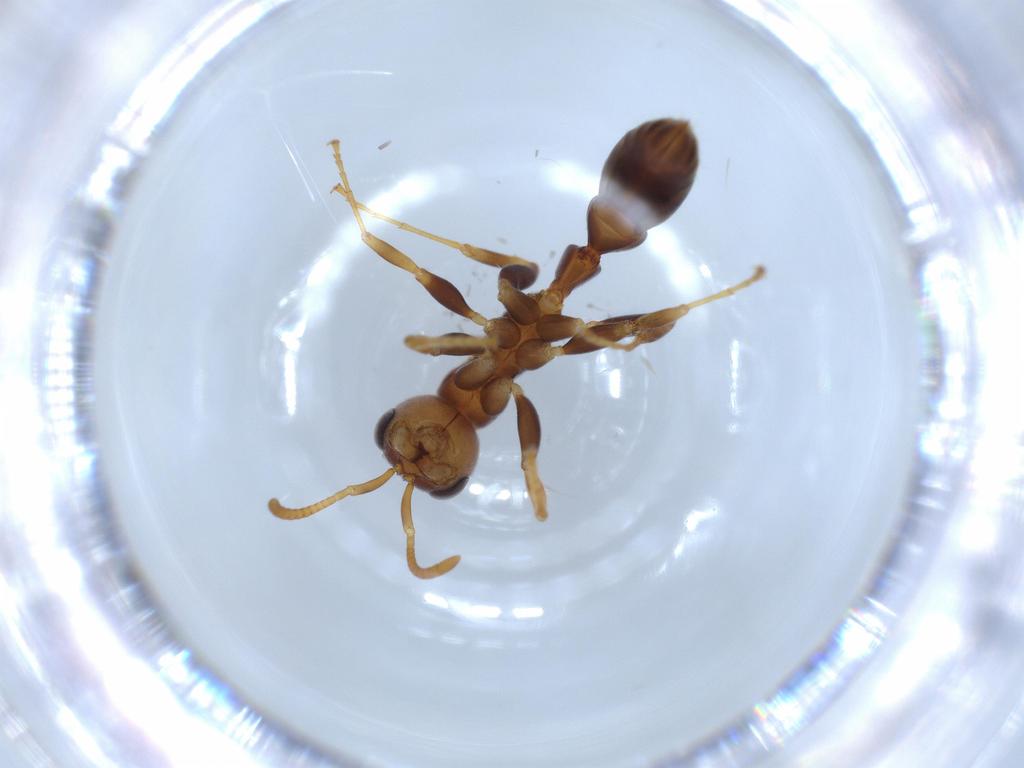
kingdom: Animalia
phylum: Arthropoda
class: Insecta
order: Hymenoptera
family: Formicidae
